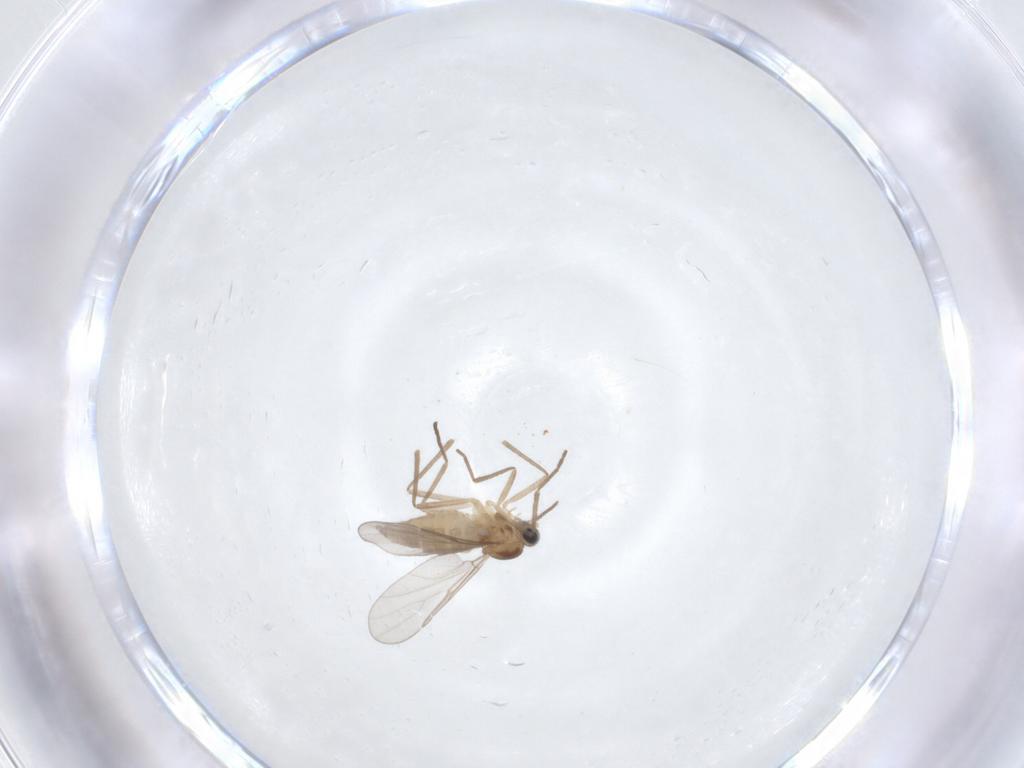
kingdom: Animalia
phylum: Arthropoda
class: Insecta
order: Diptera
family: Cecidomyiidae
